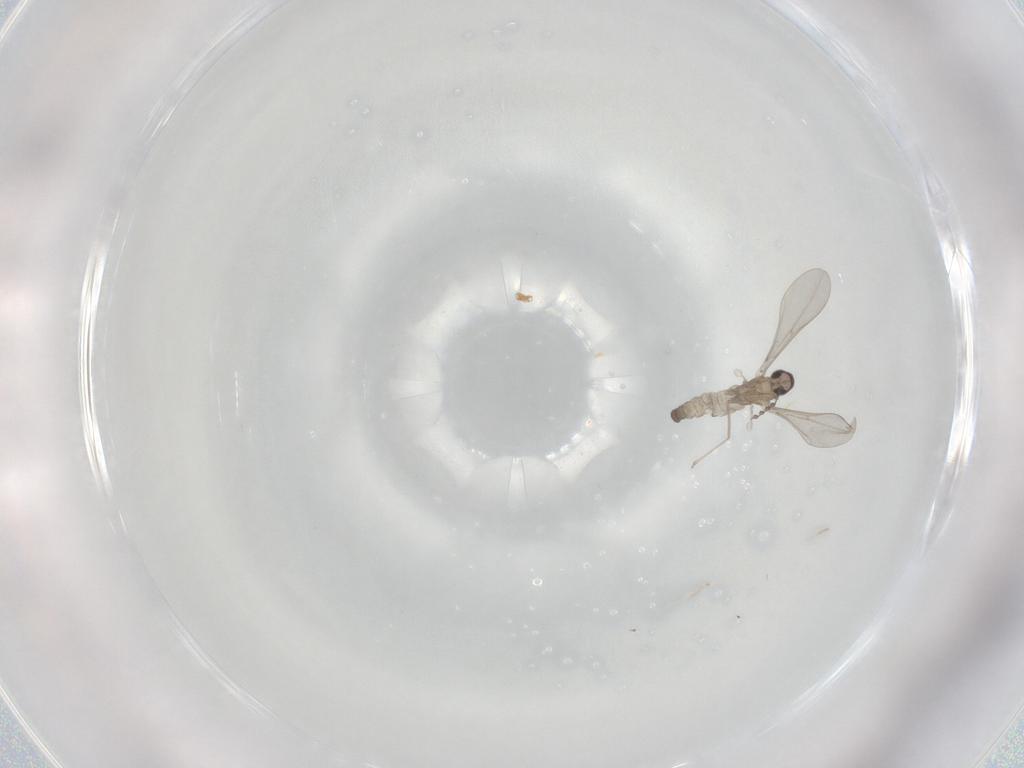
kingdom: Animalia
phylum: Arthropoda
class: Insecta
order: Diptera
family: Cecidomyiidae
